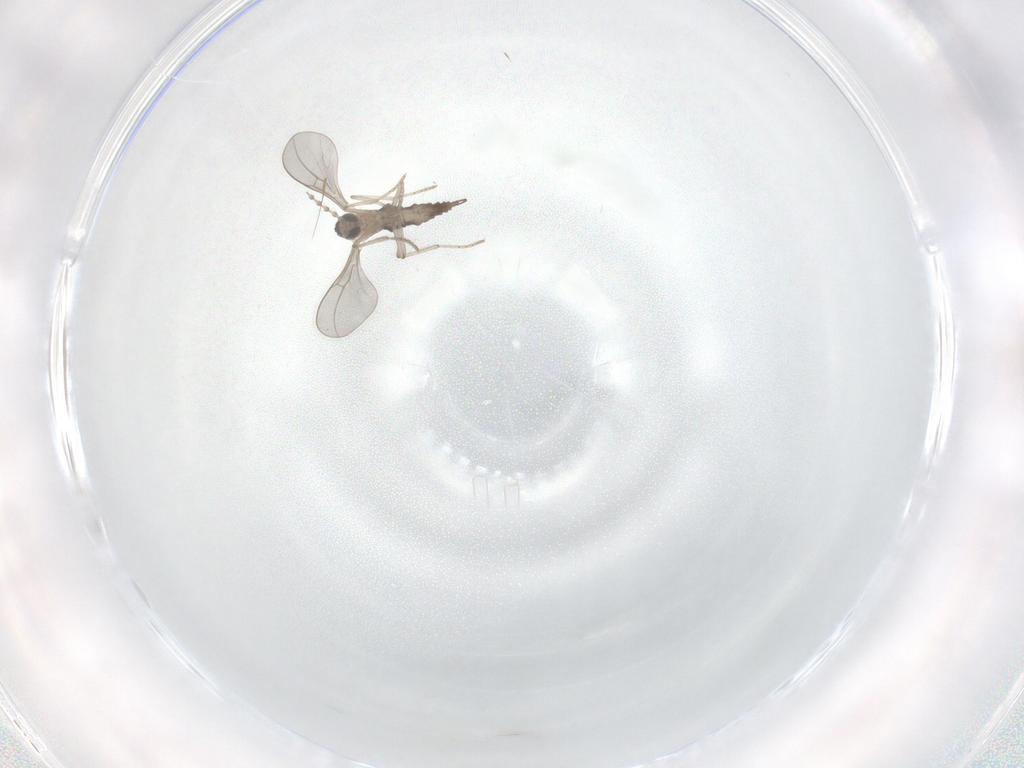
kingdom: Animalia
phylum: Arthropoda
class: Insecta
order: Diptera
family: Cecidomyiidae
